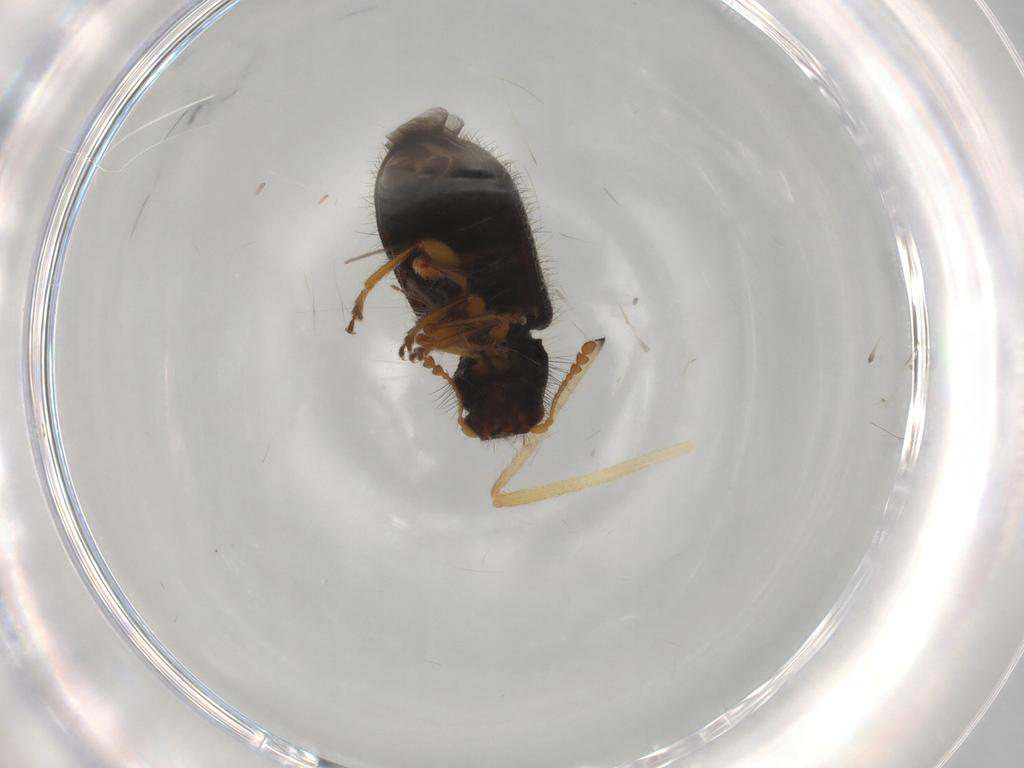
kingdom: Animalia
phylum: Arthropoda
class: Insecta
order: Coleoptera
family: Cleridae
